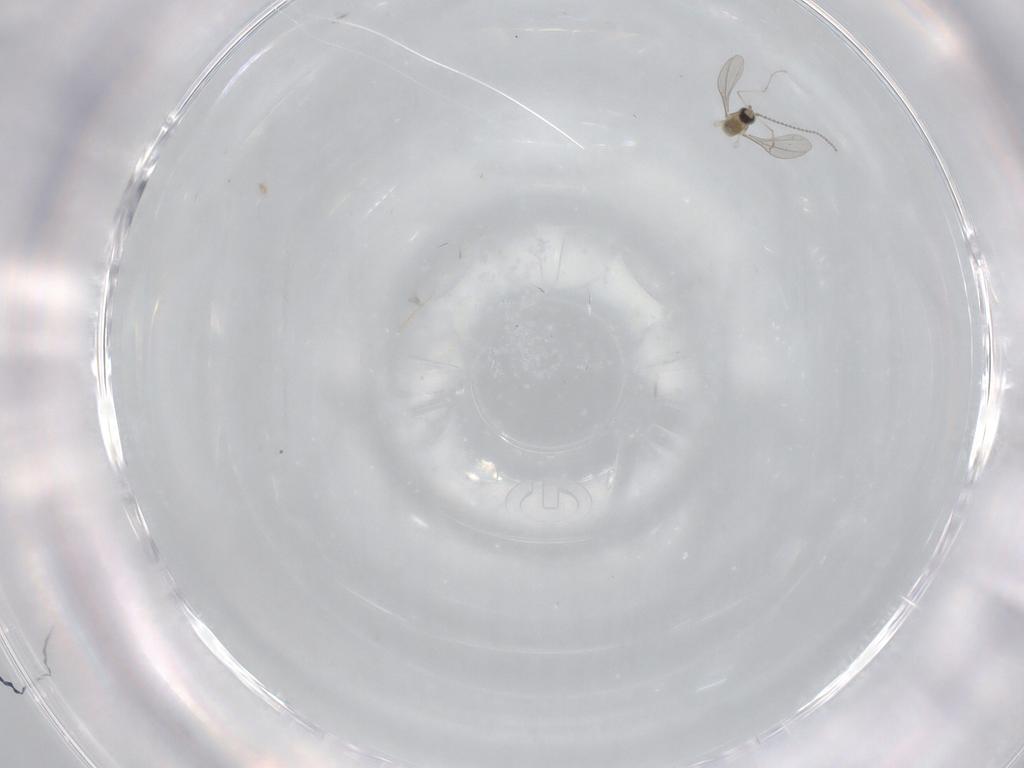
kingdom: Animalia
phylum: Arthropoda
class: Insecta
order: Diptera
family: Cecidomyiidae
